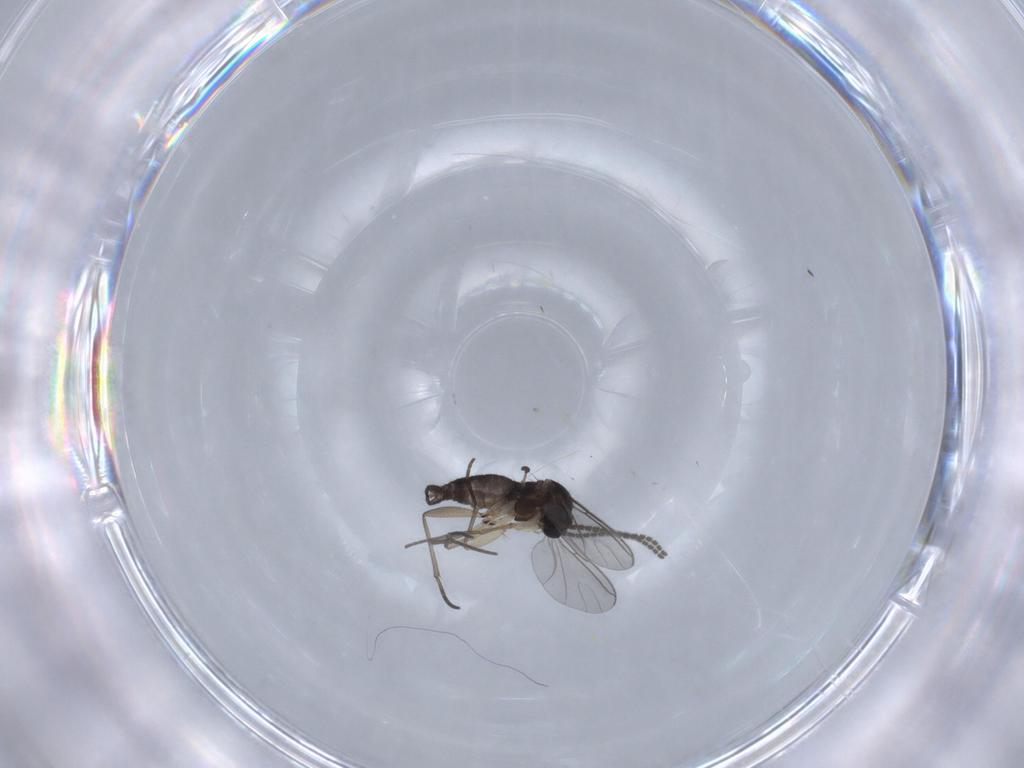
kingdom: Animalia
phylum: Arthropoda
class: Insecta
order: Diptera
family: Sciaridae
